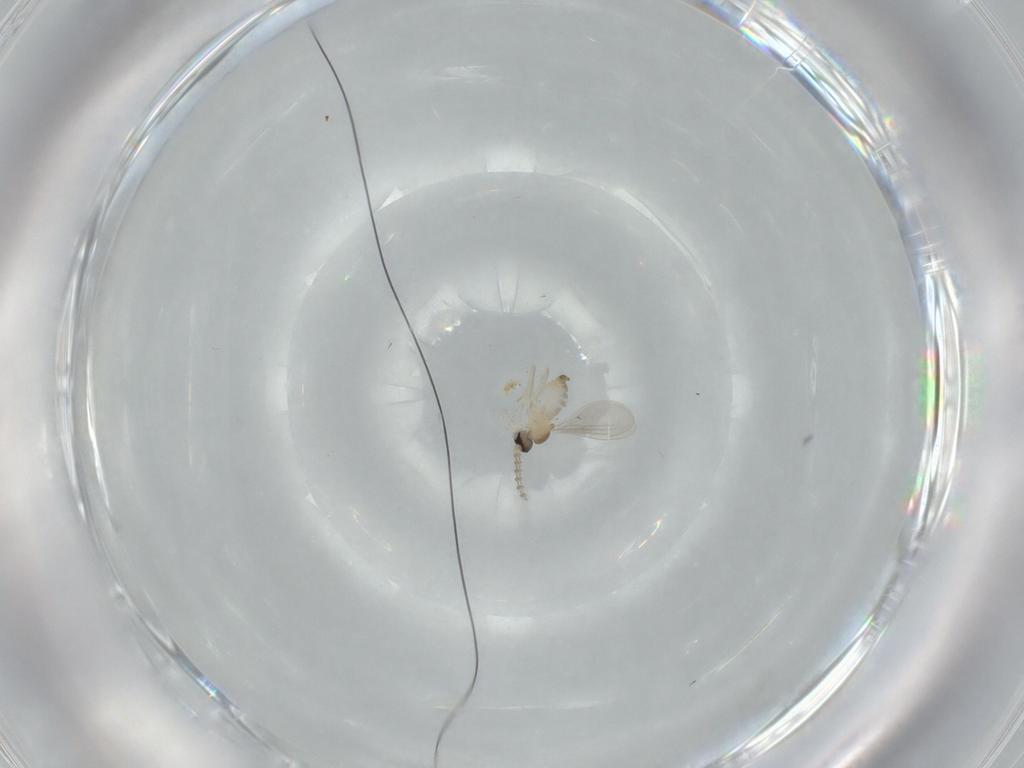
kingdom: Animalia
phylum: Arthropoda
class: Insecta
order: Diptera
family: Cecidomyiidae
